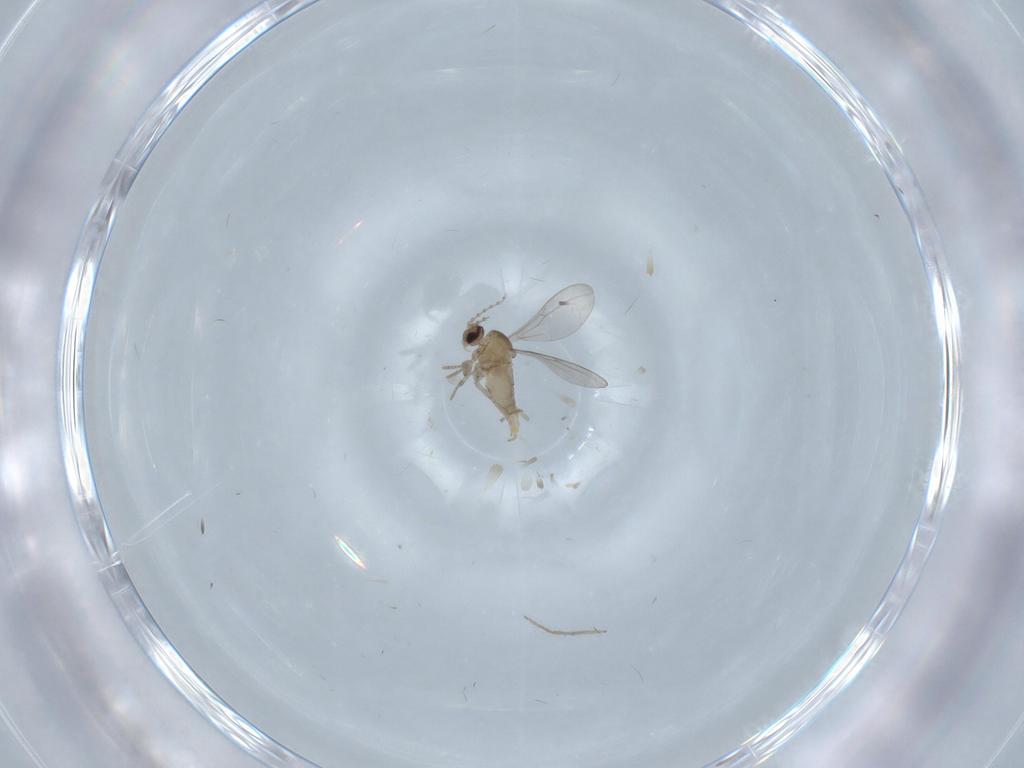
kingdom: Animalia
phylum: Arthropoda
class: Insecta
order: Diptera
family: Cecidomyiidae
